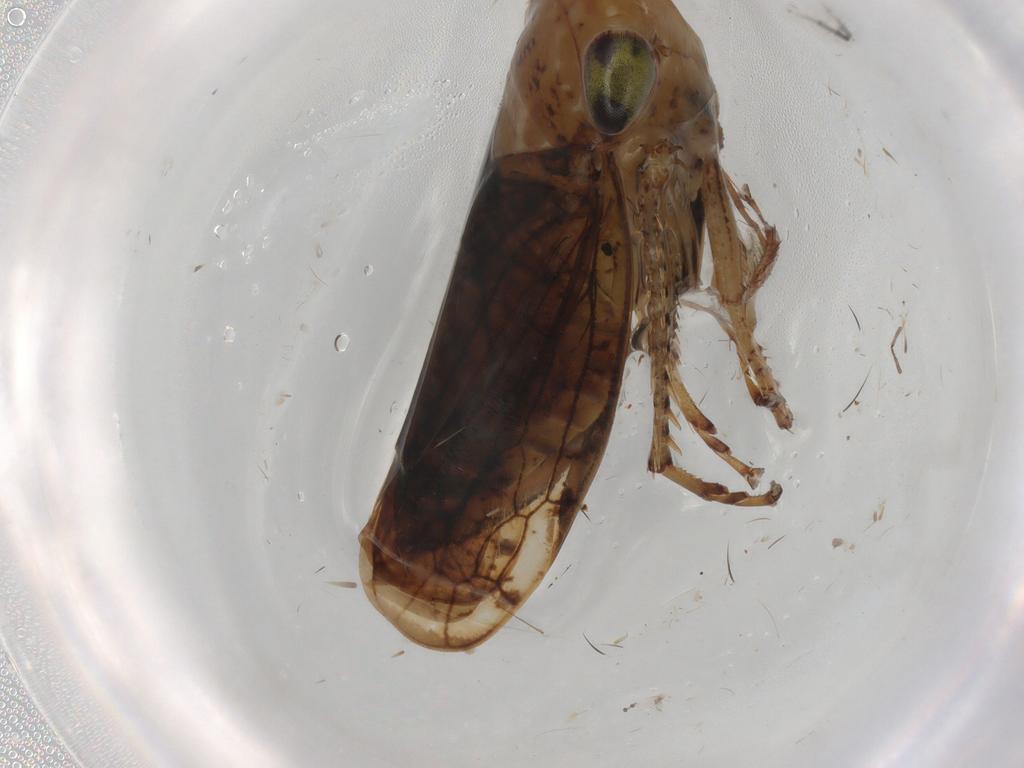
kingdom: Animalia
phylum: Arthropoda
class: Insecta
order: Hemiptera
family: Cicadellidae
